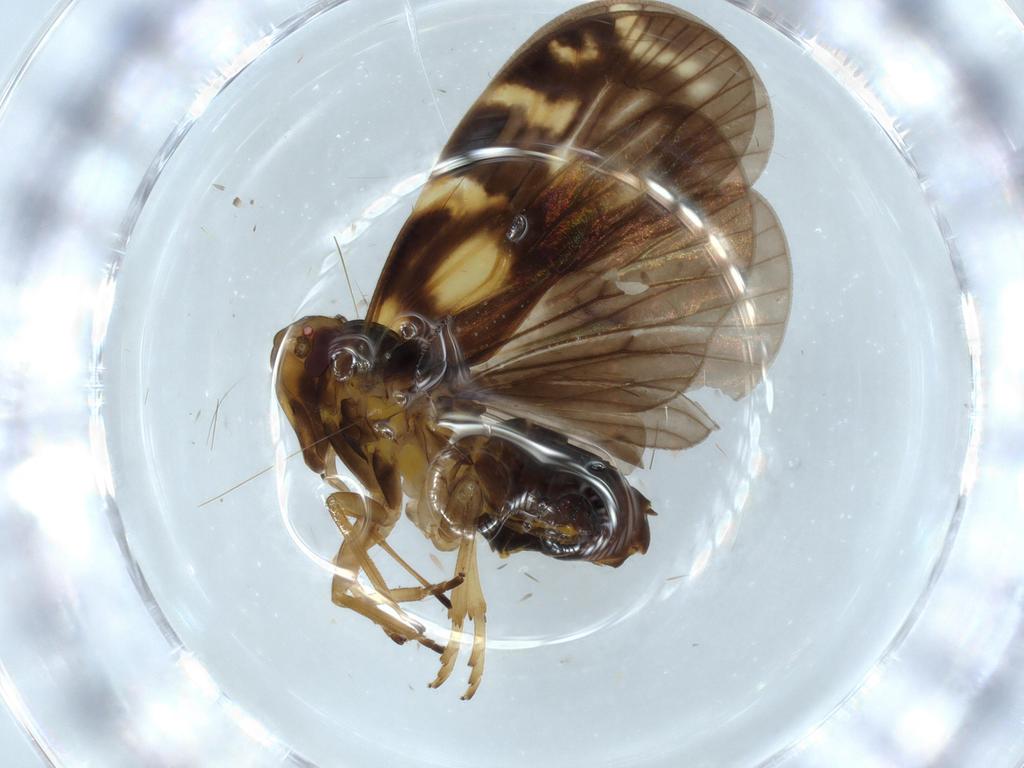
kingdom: Animalia
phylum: Arthropoda
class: Insecta
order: Hemiptera
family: Cixiidae
